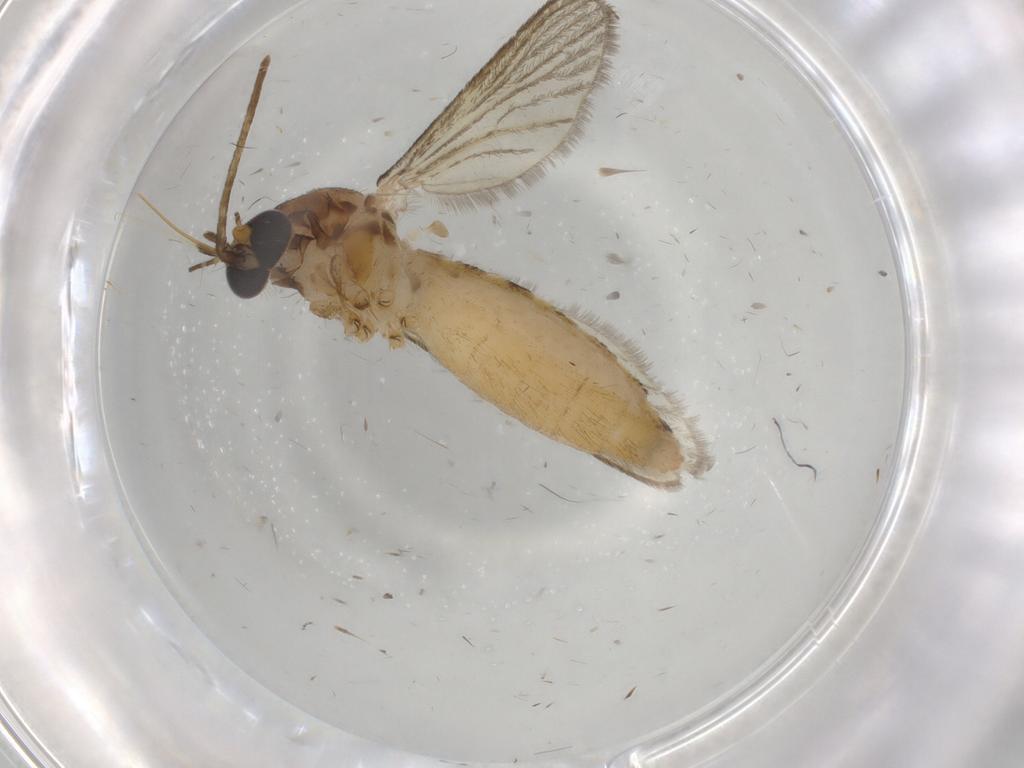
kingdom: Animalia
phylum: Arthropoda
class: Insecta
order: Diptera
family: Culicidae
